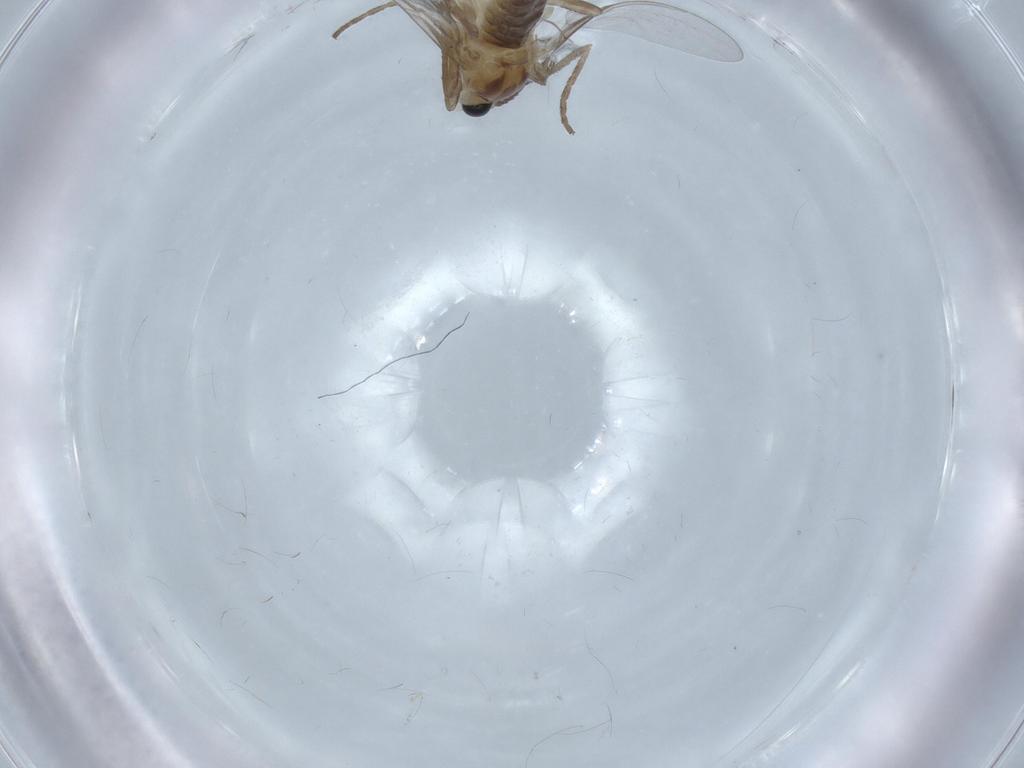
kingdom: Animalia
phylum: Arthropoda
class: Insecta
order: Diptera
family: Cecidomyiidae
